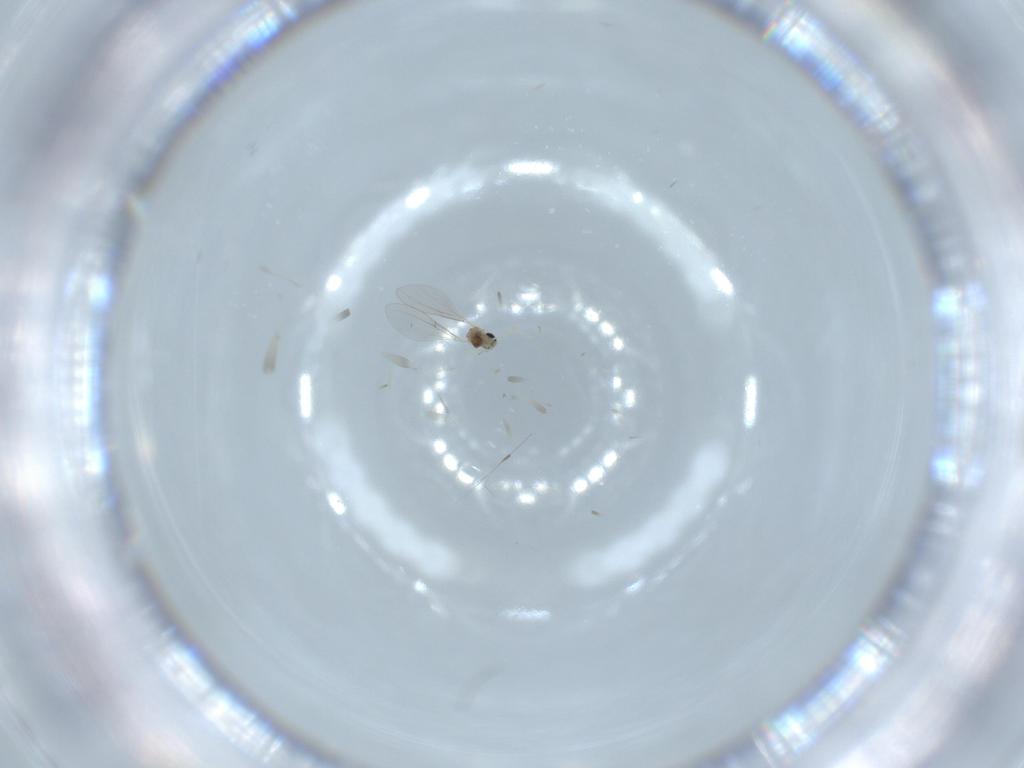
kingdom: Animalia
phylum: Arthropoda
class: Insecta
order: Diptera
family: Cecidomyiidae
